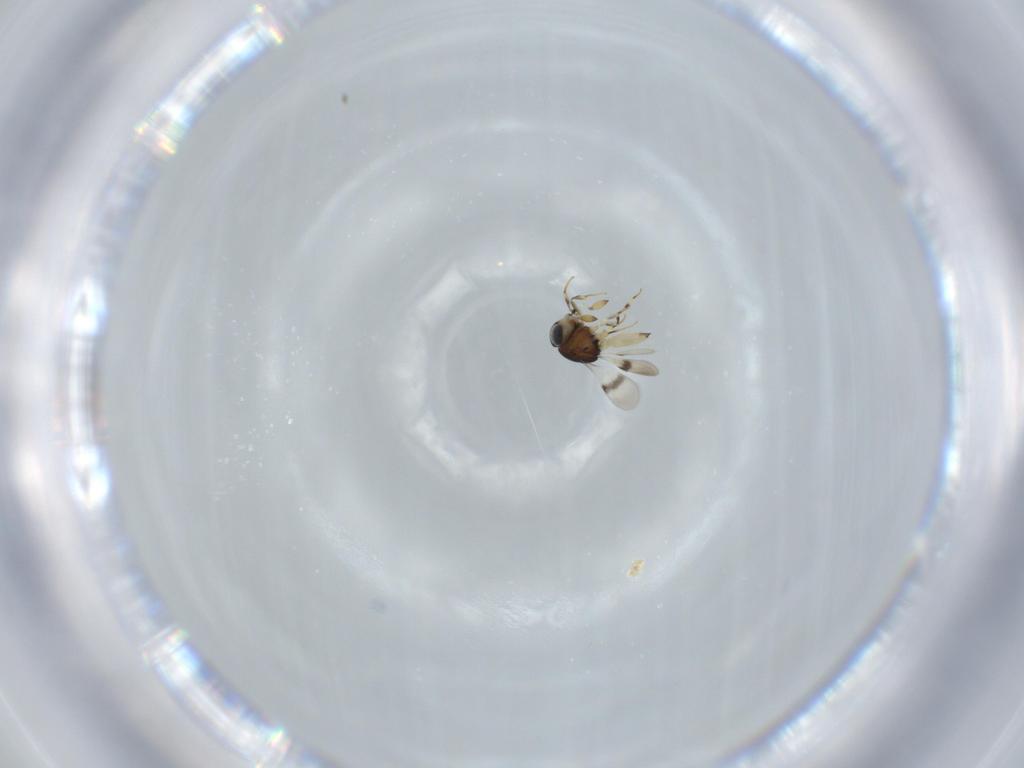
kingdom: Animalia
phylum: Arthropoda
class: Insecta
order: Hymenoptera
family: Scelionidae
